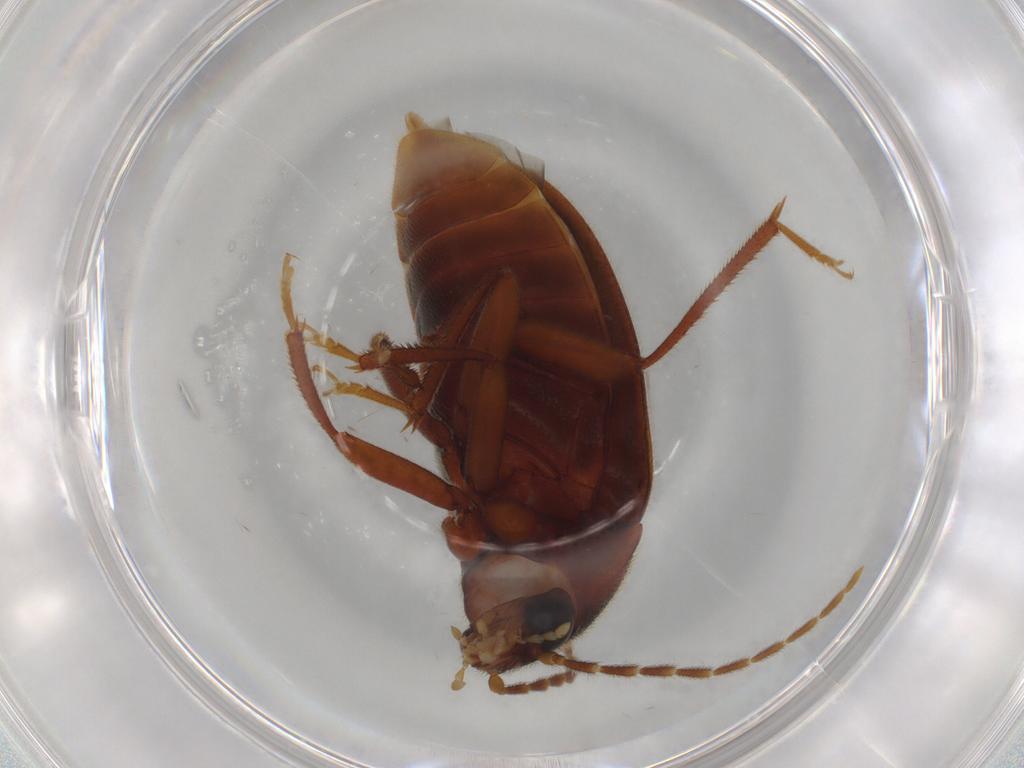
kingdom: Animalia
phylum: Arthropoda
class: Insecta
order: Coleoptera
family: Ptilodactylidae
